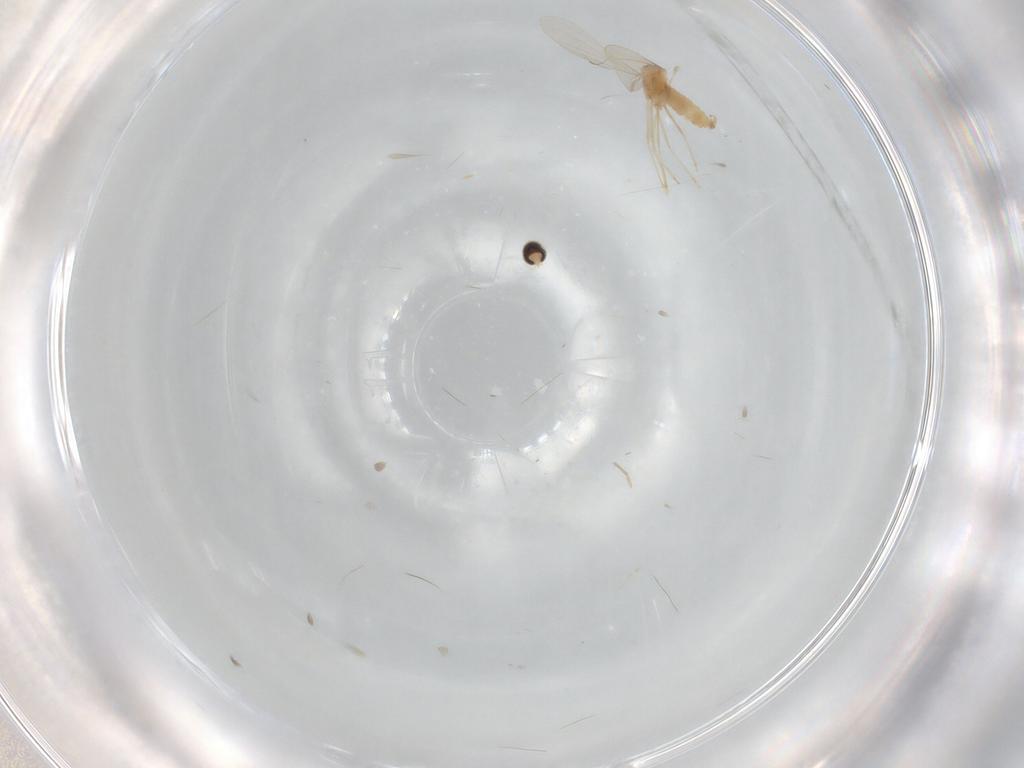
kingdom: Animalia
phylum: Arthropoda
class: Insecta
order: Diptera
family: Cecidomyiidae
